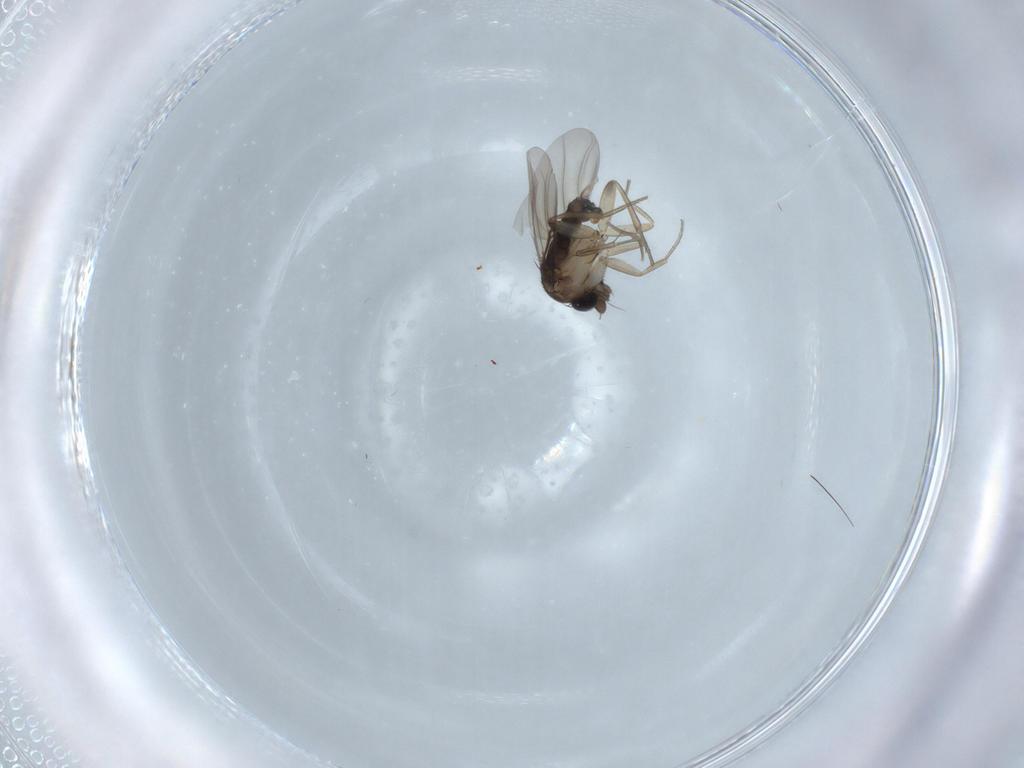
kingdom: Animalia
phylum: Arthropoda
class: Insecta
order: Diptera
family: Phoridae
